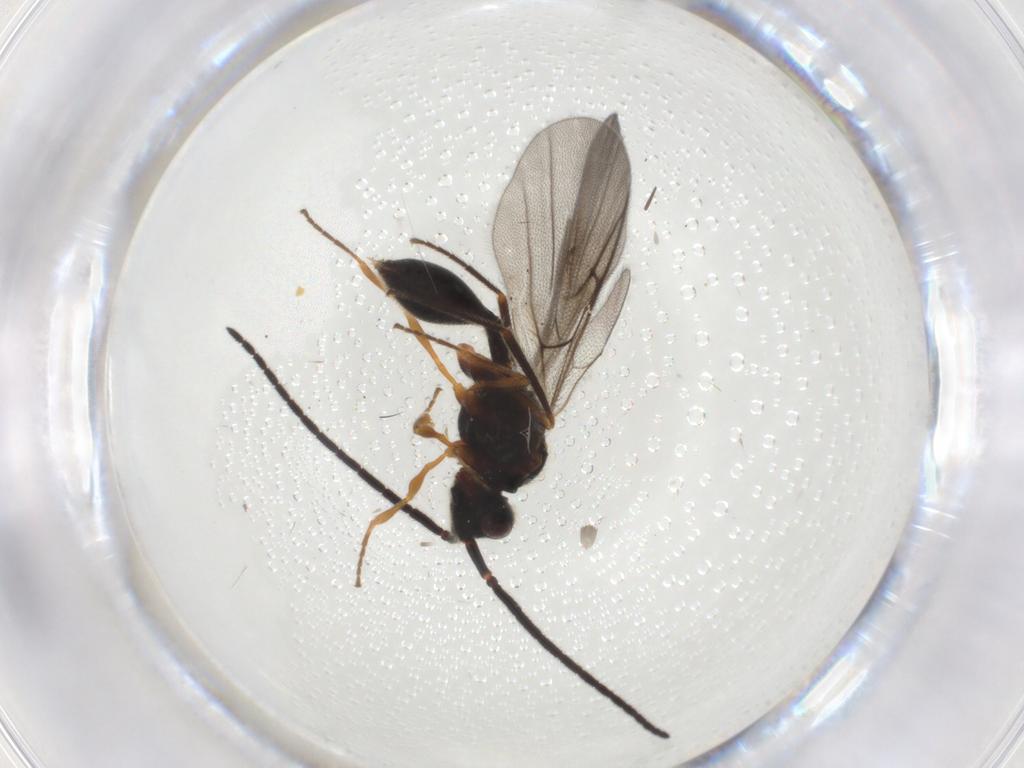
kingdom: Animalia
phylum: Arthropoda
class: Insecta
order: Hymenoptera
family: Diapriidae
